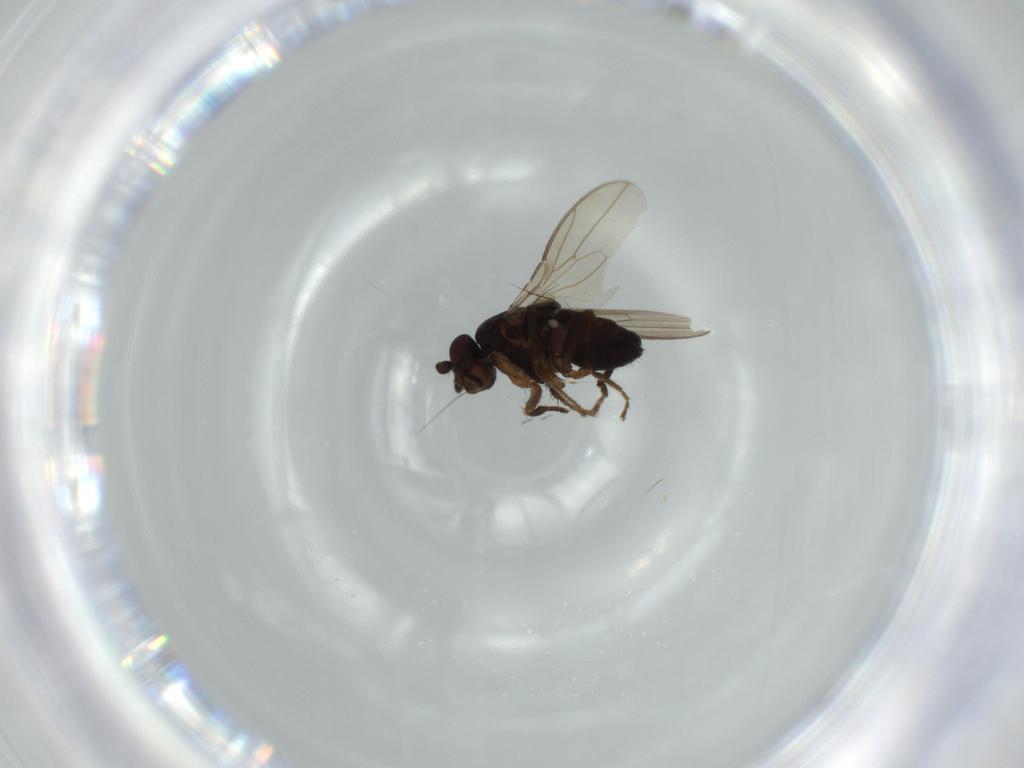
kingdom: Animalia
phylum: Arthropoda
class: Insecta
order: Diptera
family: Sphaeroceridae
